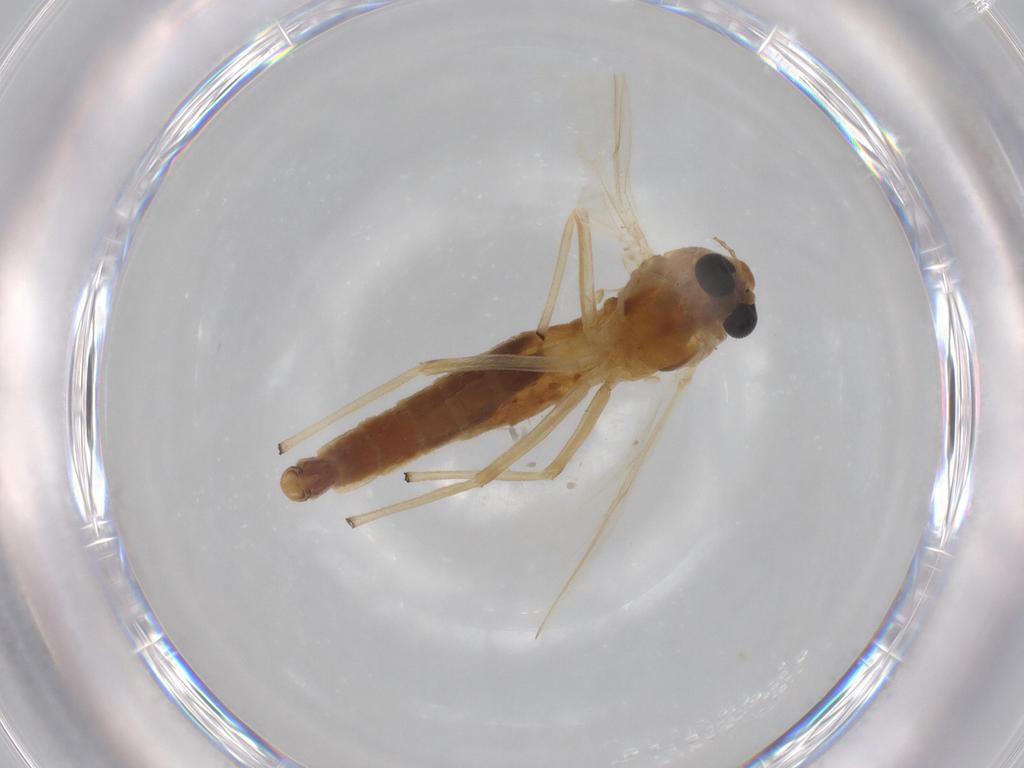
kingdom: Animalia
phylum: Arthropoda
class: Insecta
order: Diptera
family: Chironomidae
